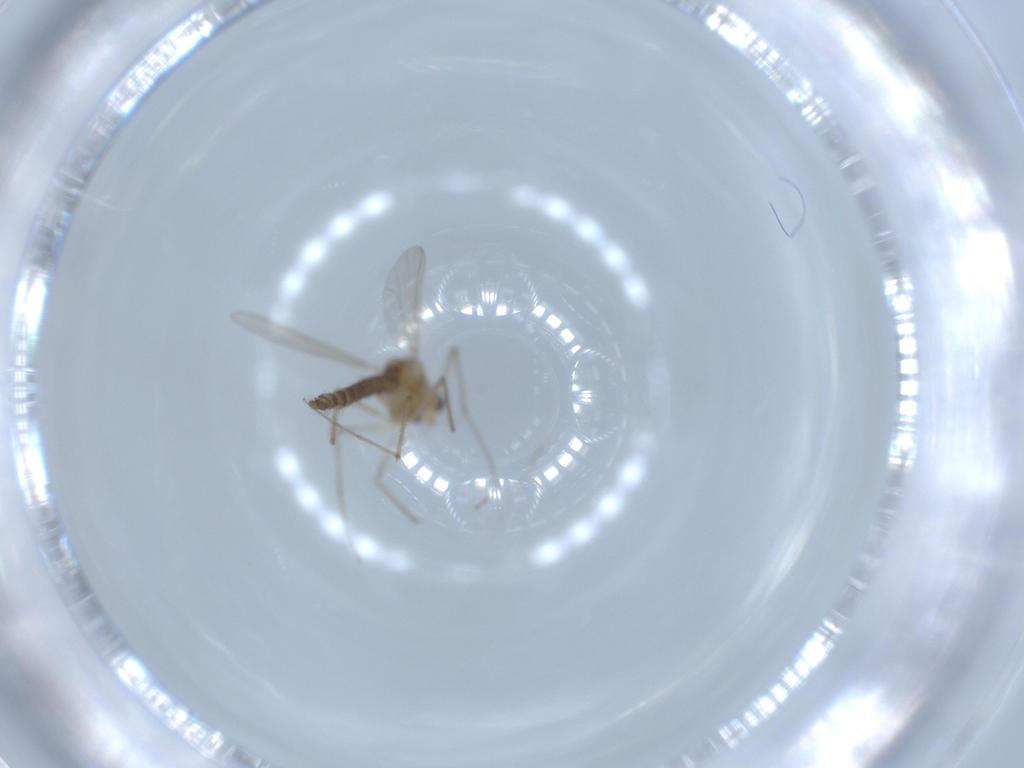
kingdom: Animalia
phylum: Arthropoda
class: Insecta
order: Diptera
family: Chironomidae
